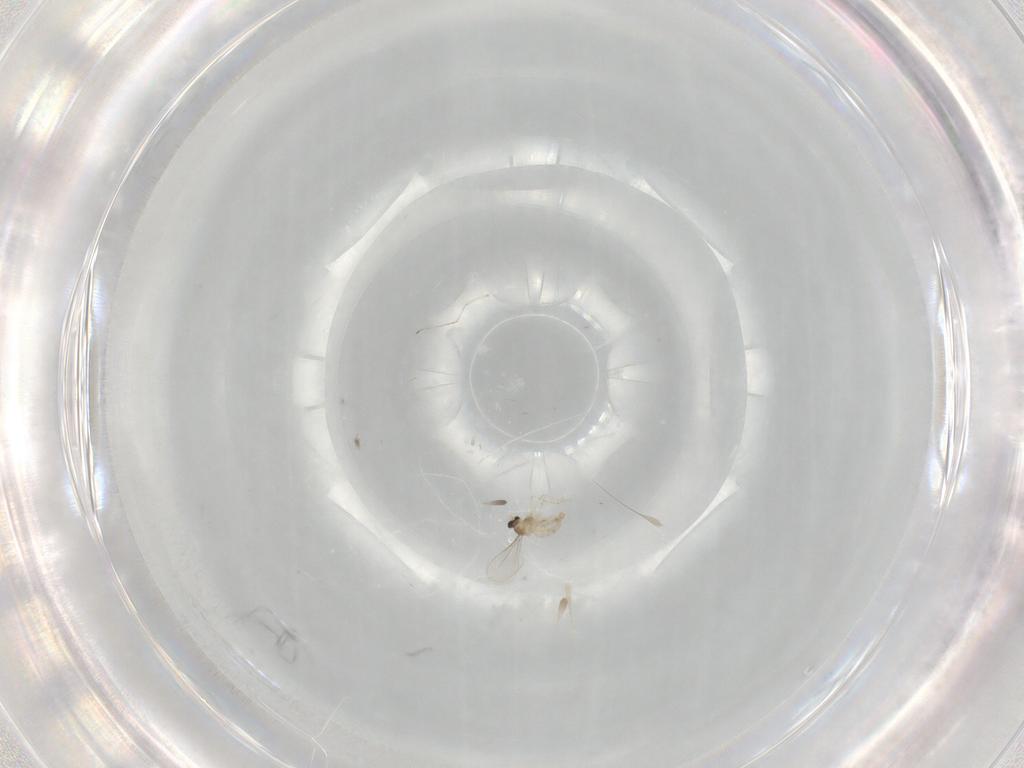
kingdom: Animalia
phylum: Arthropoda
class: Insecta
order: Diptera
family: Cecidomyiidae
